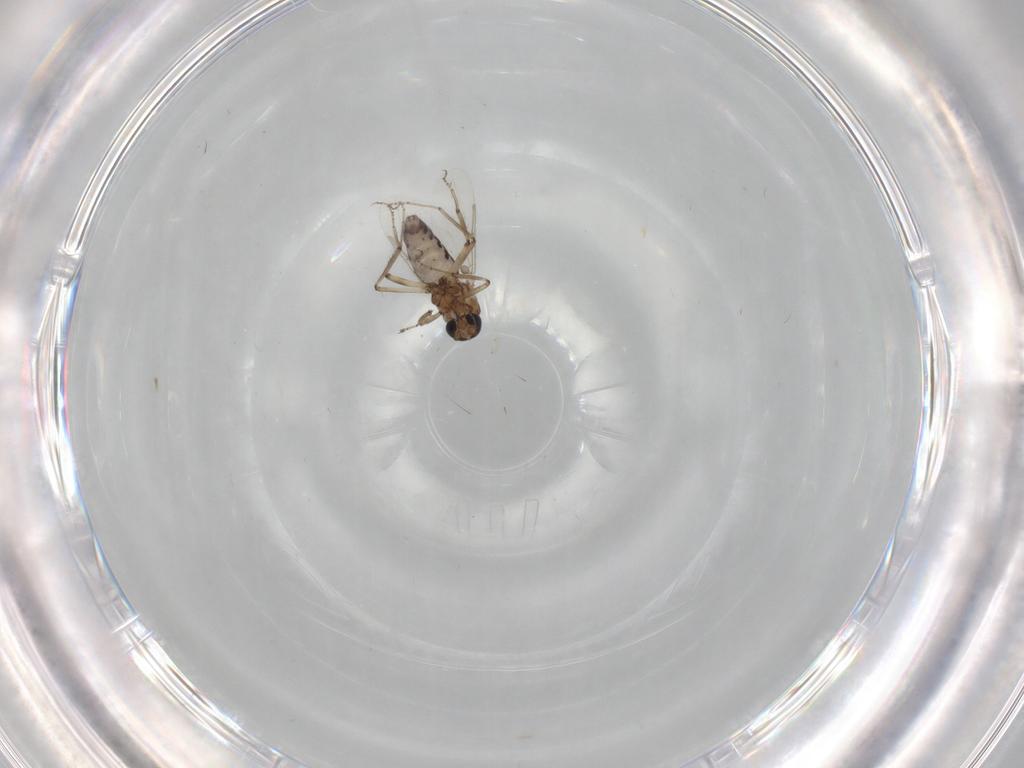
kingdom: Animalia
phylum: Arthropoda
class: Insecta
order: Diptera
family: Ceratopogonidae
